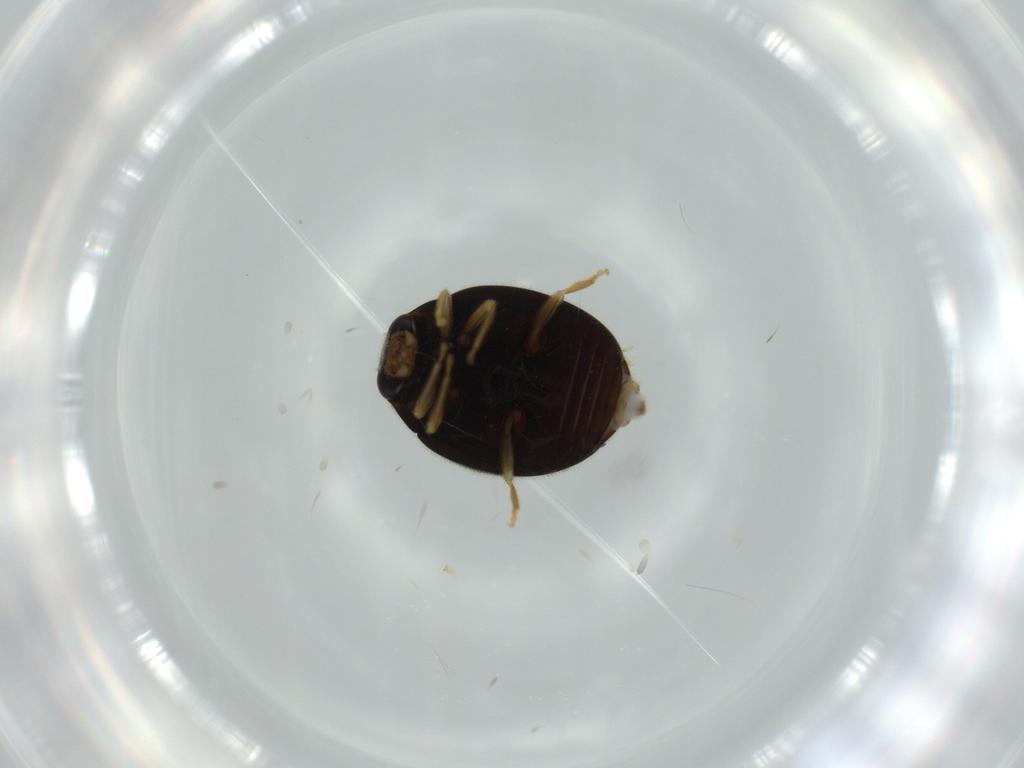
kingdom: Animalia
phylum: Arthropoda
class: Insecta
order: Coleoptera
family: Coccinellidae
